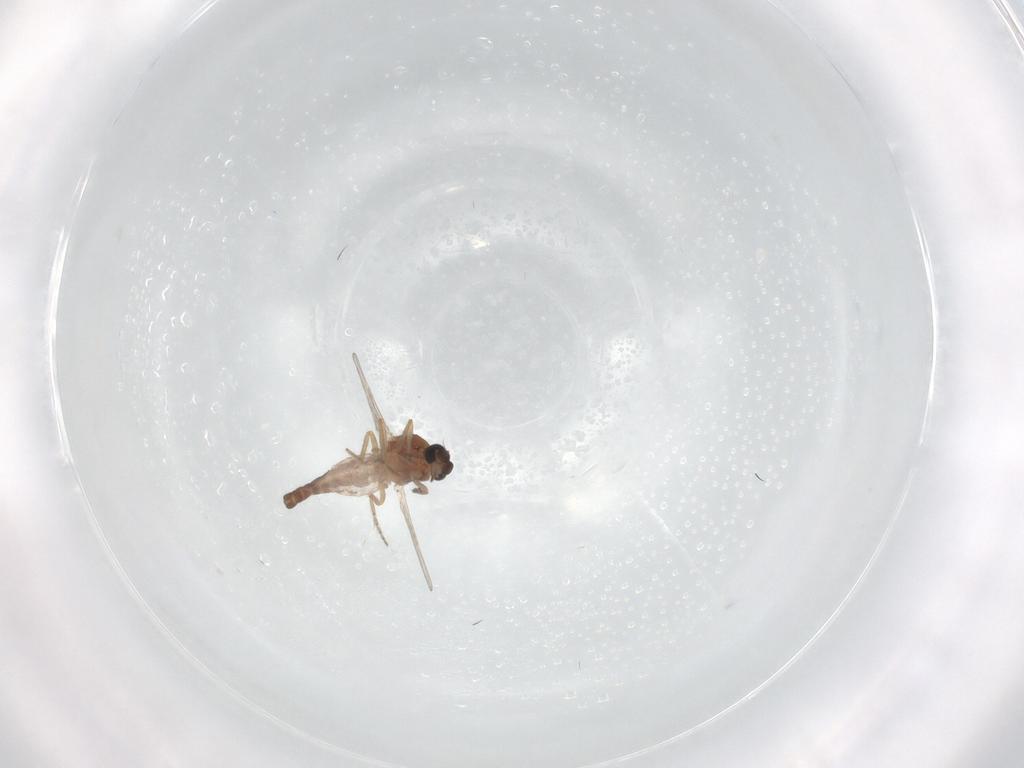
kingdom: Animalia
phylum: Arthropoda
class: Insecta
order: Diptera
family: Ceratopogonidae
